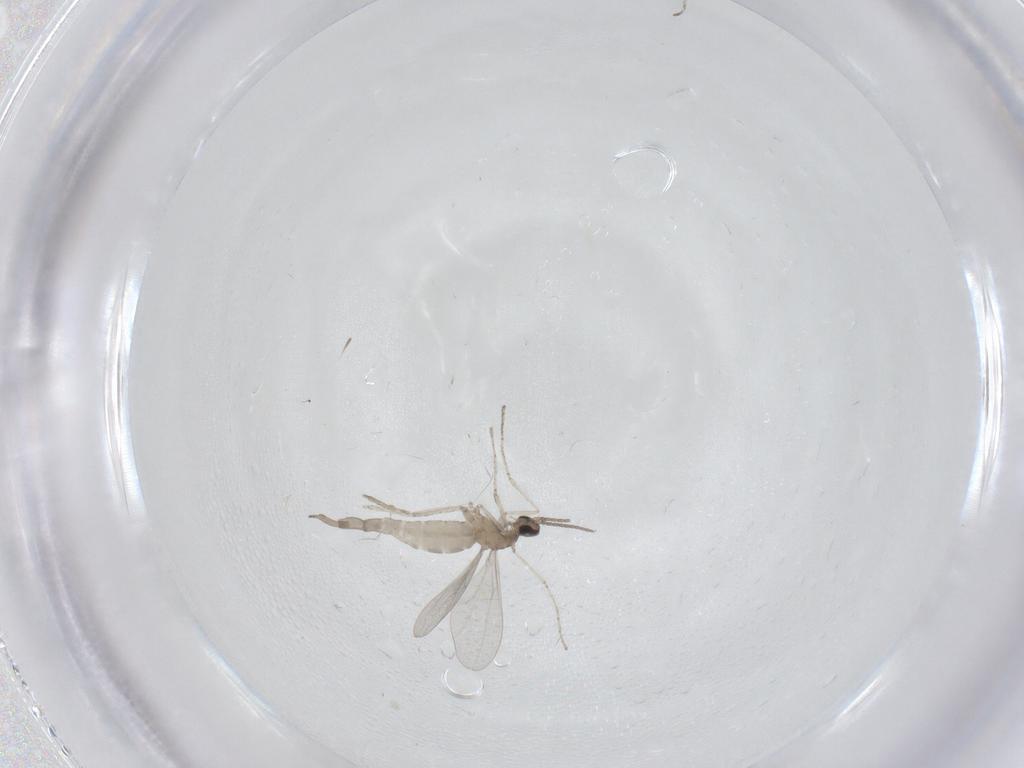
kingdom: Animalia
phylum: Arthropoda
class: Insecta
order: Diptera
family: Cecidomyiidae
